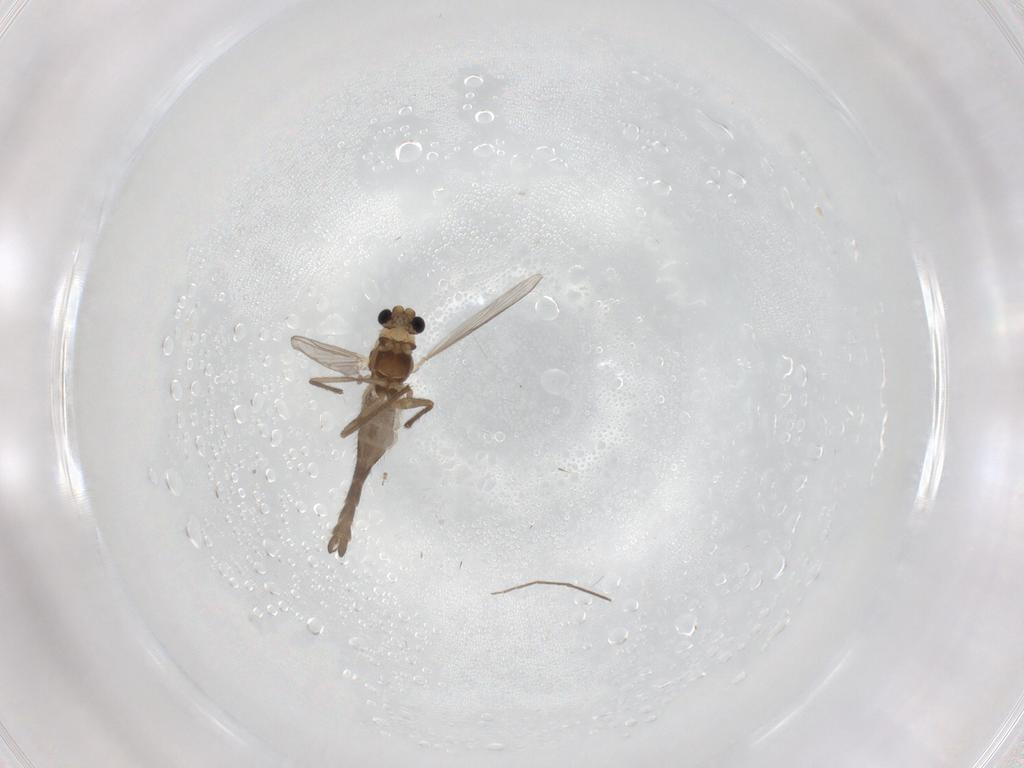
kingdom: Animalia
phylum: Arthropoda
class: Insecta
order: Diptera
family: Chironomidae
